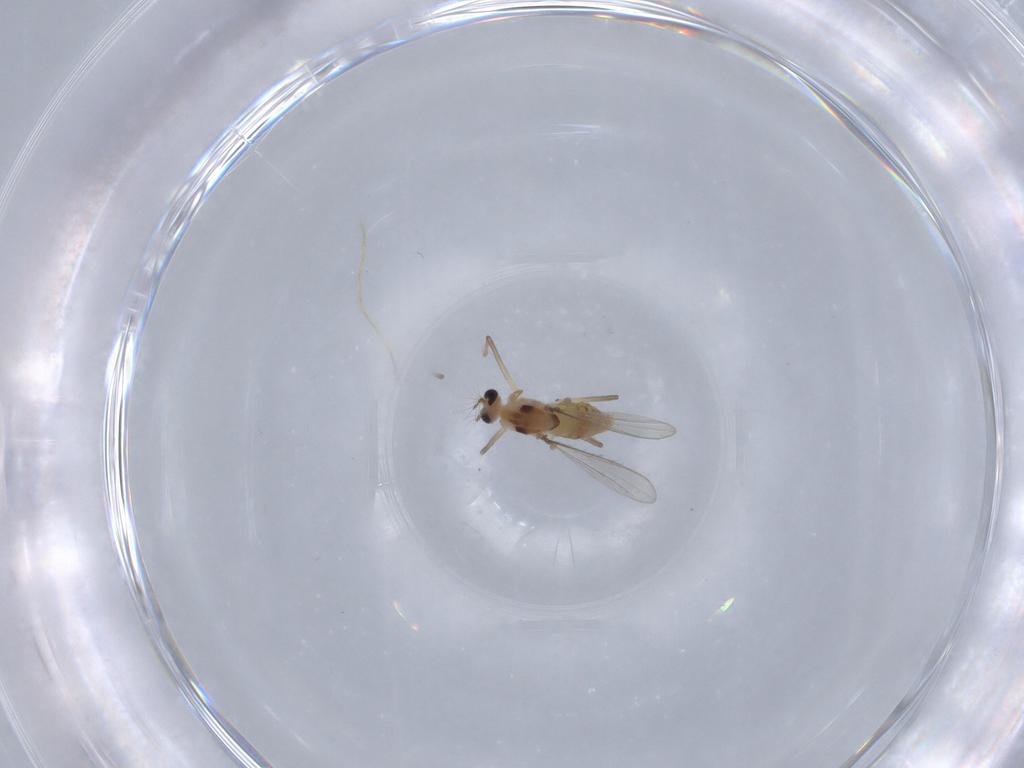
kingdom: Animalia
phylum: Arthropoda
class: Insecta
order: Diptera
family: Chironomidae
